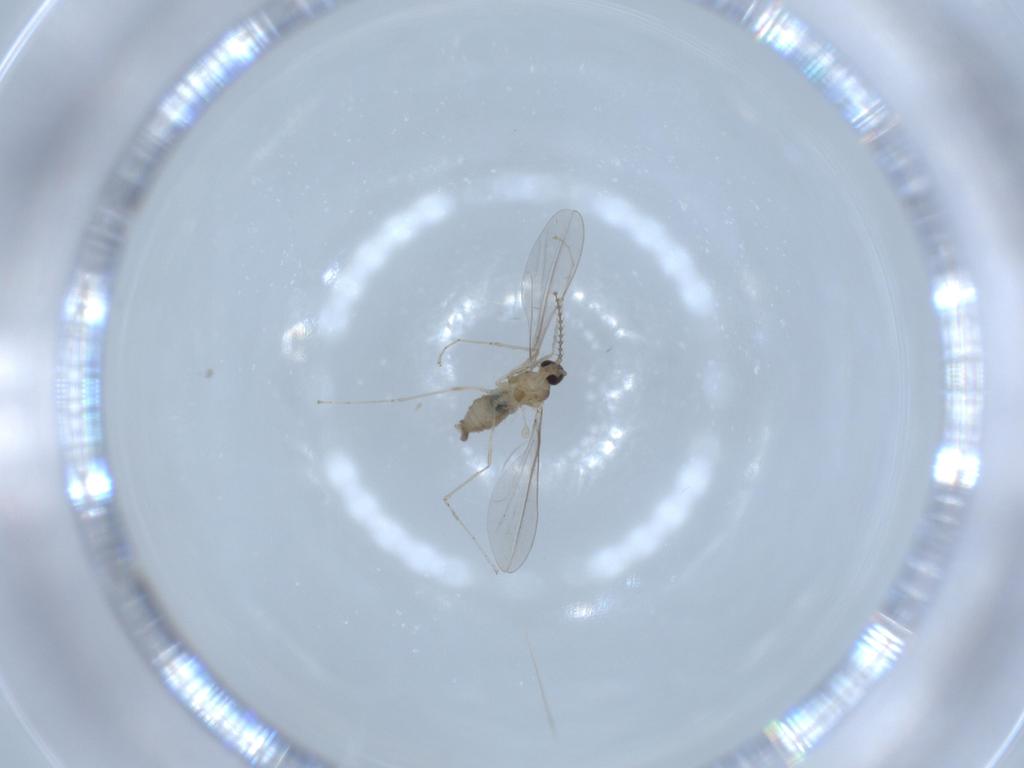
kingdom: Animalia
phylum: Arthropoda
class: Insecta
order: Diptera
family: Cecidomyiidae
